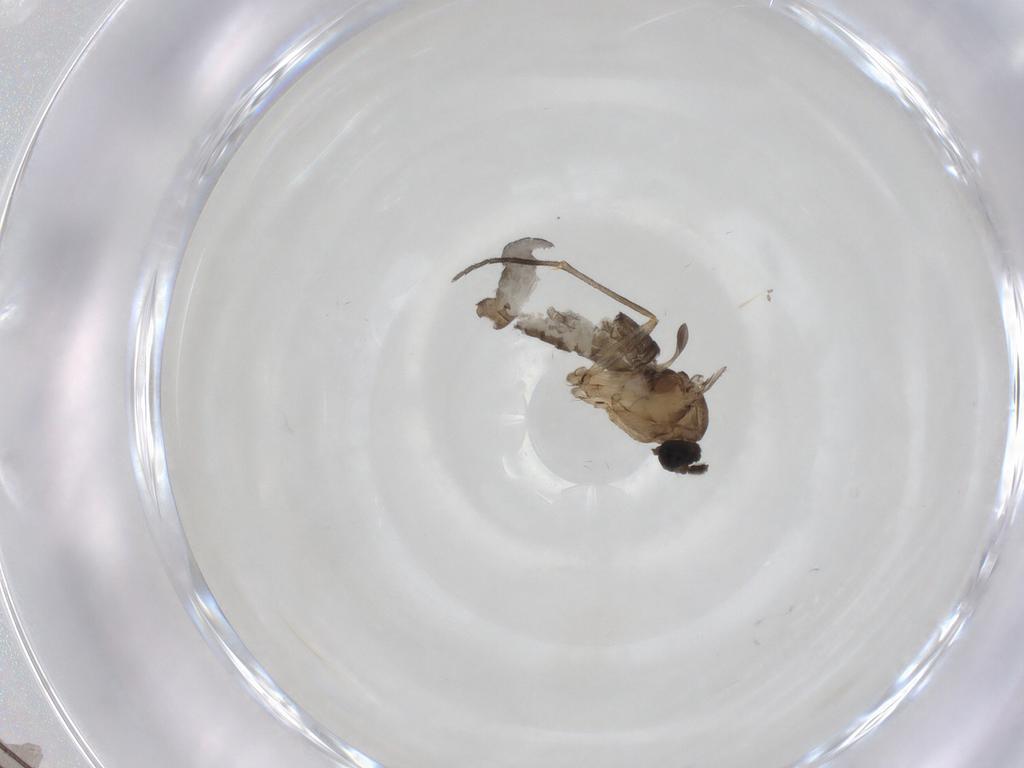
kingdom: Animalia
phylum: Arthropoda
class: Insecta
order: Diptera
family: Sciaridae
